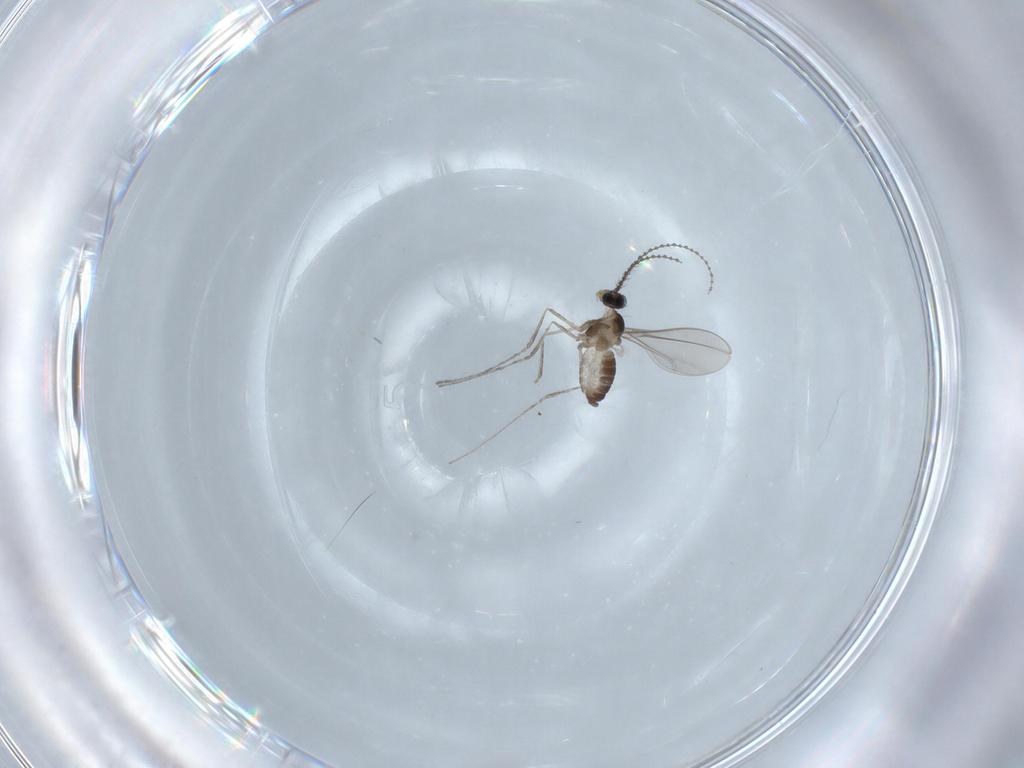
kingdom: Animalia
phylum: Arthropoda
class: Insecta
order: Diptera
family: Cecidomyiidae
